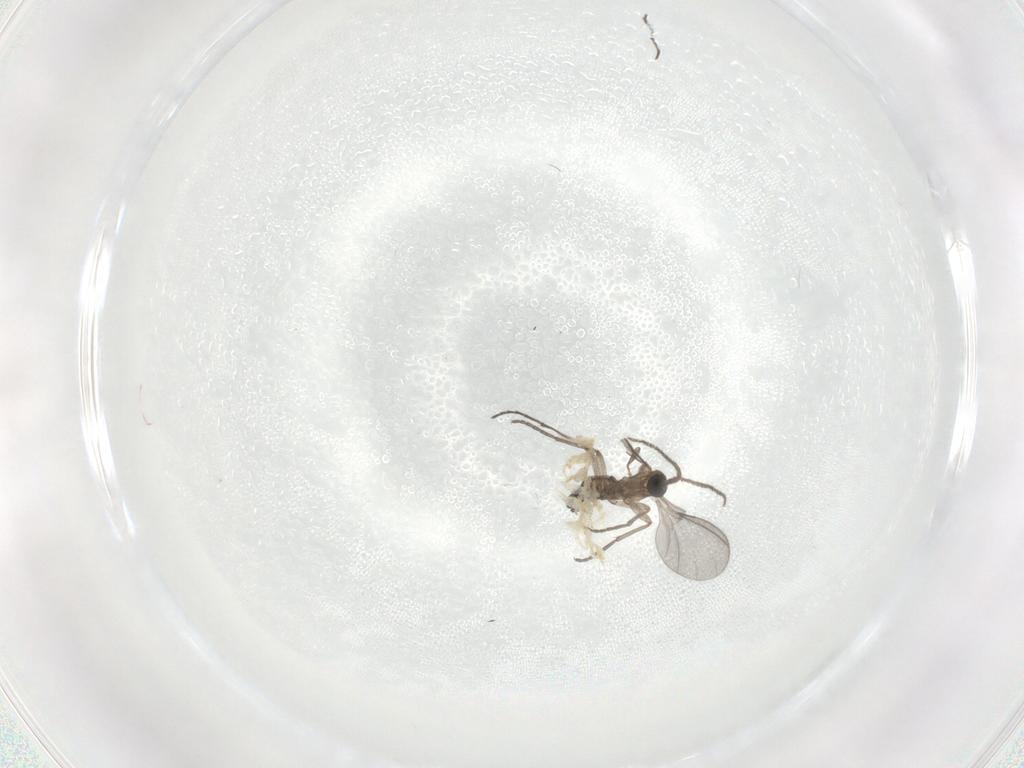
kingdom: Animalia
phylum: Arthropoda
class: Insecta
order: Diptera
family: Sciaridae
